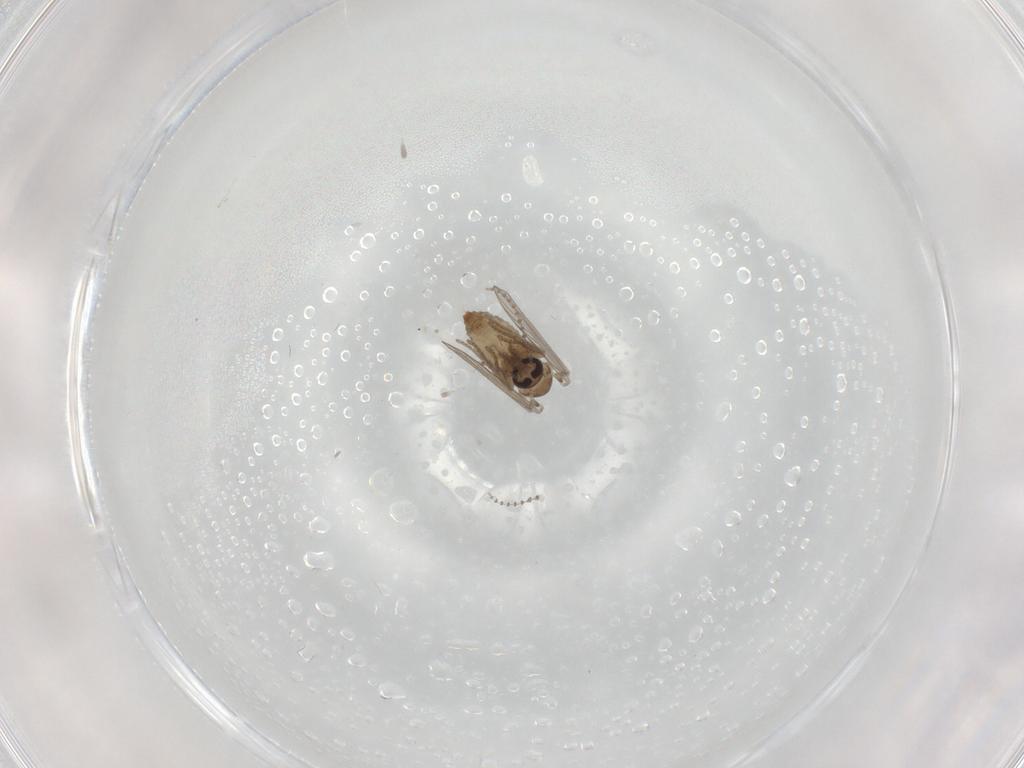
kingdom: Animalia
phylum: Arthropoda
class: Insecta
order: Diptera
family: Psychodidae
